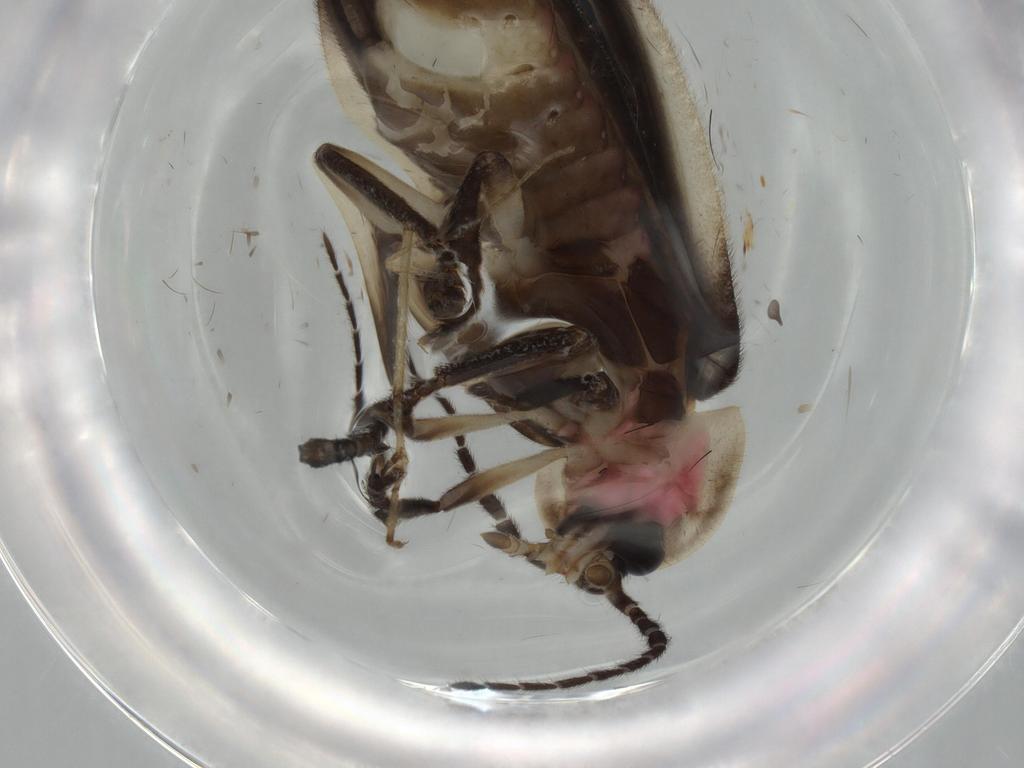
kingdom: Animalia
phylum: Arthropoda
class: Insecta
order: Coleoptera
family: Lampyridae
